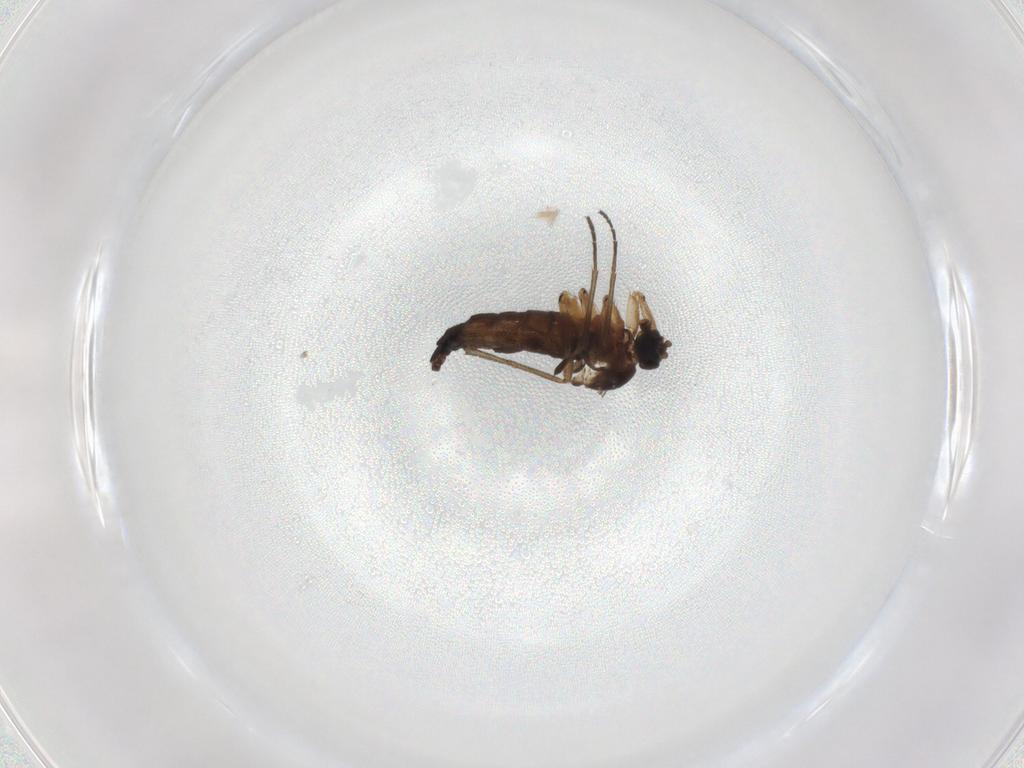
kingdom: Animalia
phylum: Arthropoda
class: Insecta
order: Diptera
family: Sciaridae
